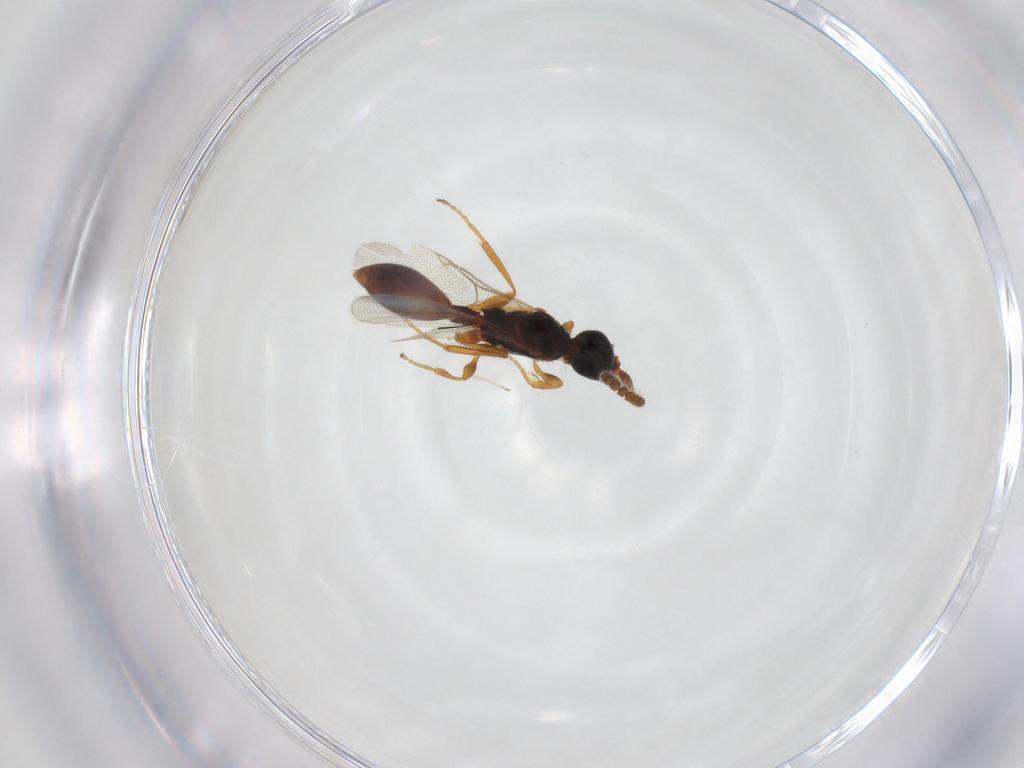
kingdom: Animalia
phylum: Arthropoda
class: Insecta
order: Hymenoptera
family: Diapriidae
